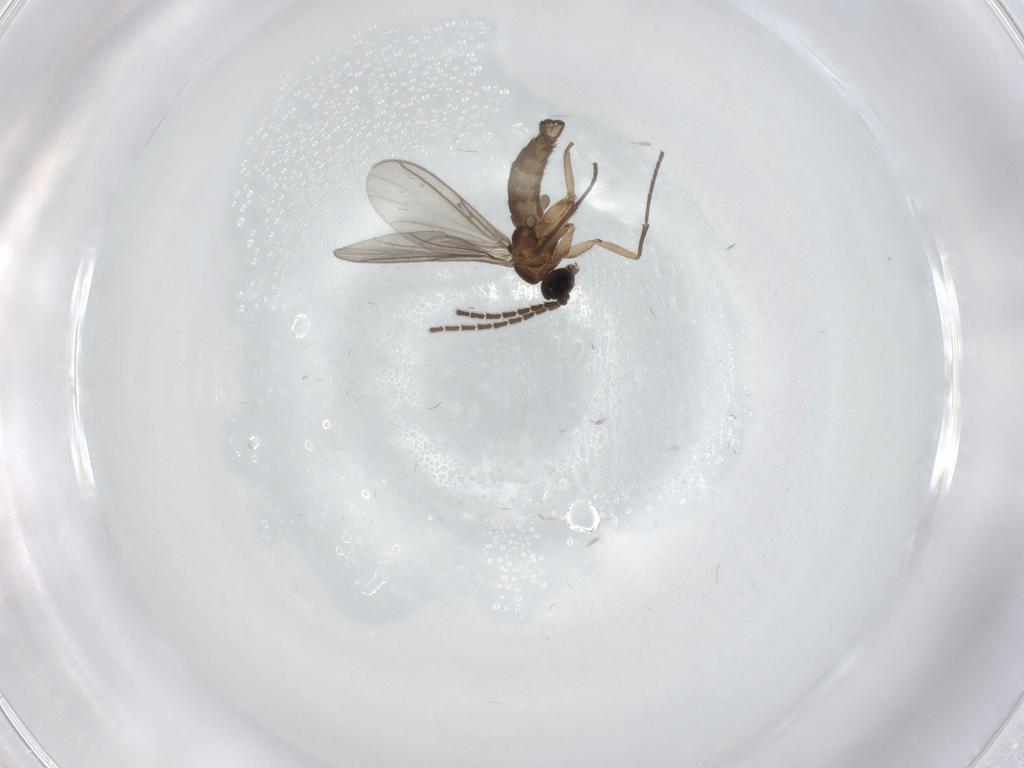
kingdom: Animalia
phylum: Arthropoda
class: Insecta
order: Diptera
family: Sciaridae
